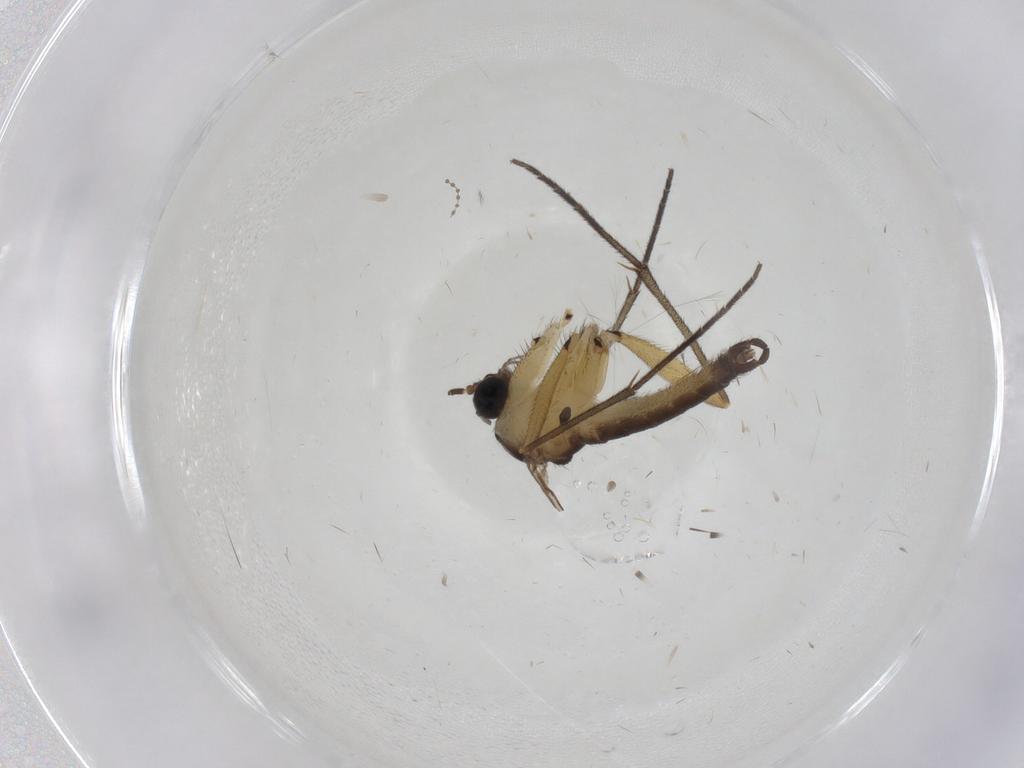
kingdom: Animalia
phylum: Arthropoda
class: Insecta
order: Diptera
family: Sciaridae
